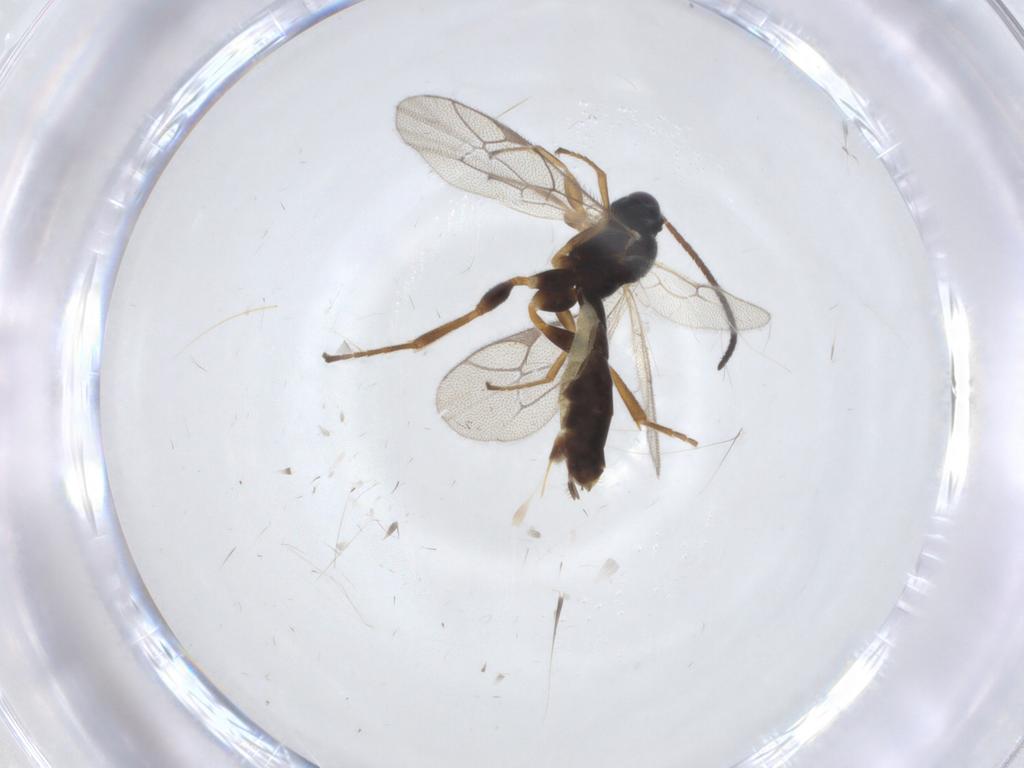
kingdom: Animalia
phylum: Arthropoda
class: Insecta
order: Hymenoptera
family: Ichneumonidae
